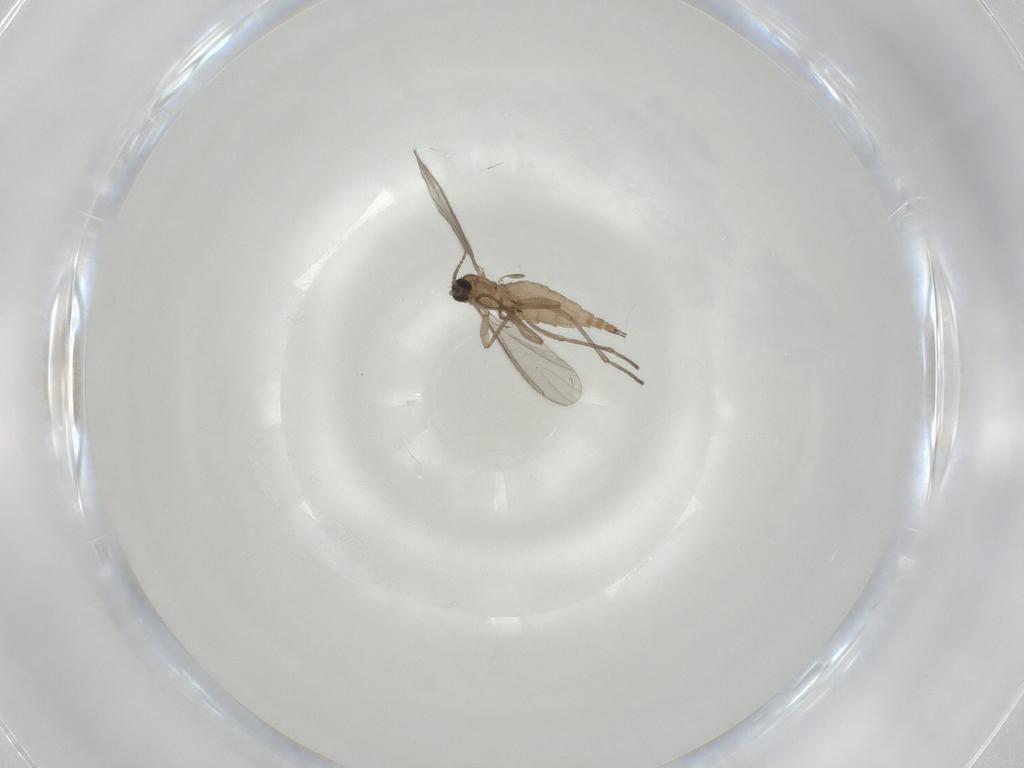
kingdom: Animalia
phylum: Arthropoda
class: Insecta
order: Diptera
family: Sciaridae
